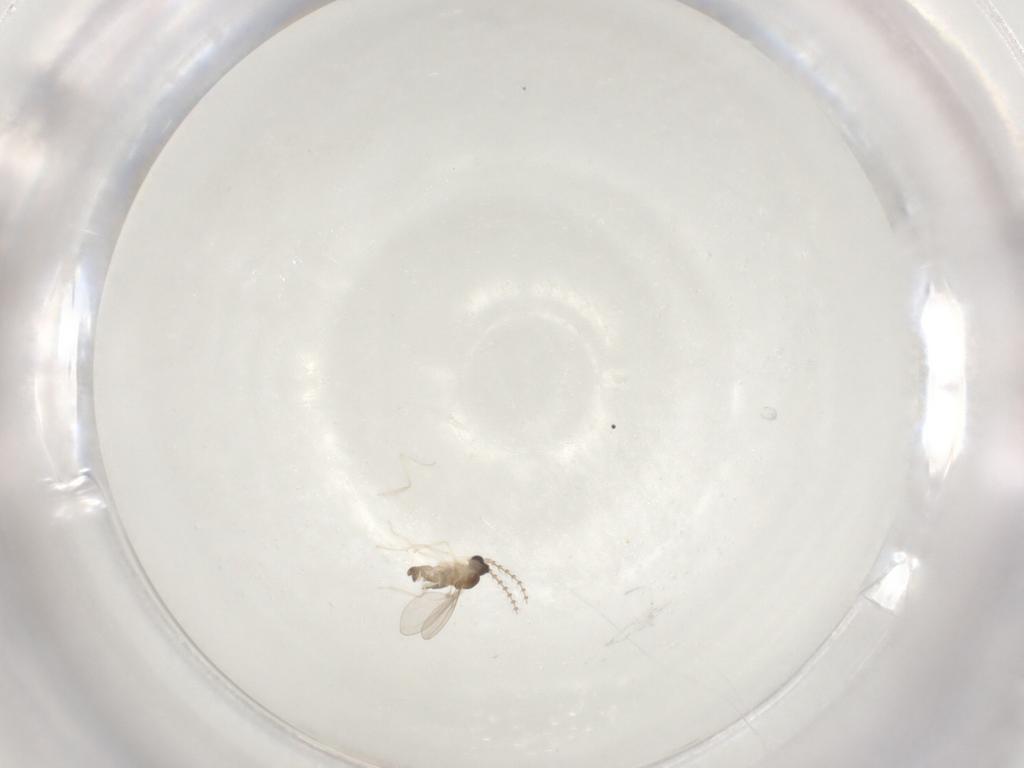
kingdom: Animalia
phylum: Arthropoda
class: Insecta
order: Diptera
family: Cecidomyiidae
